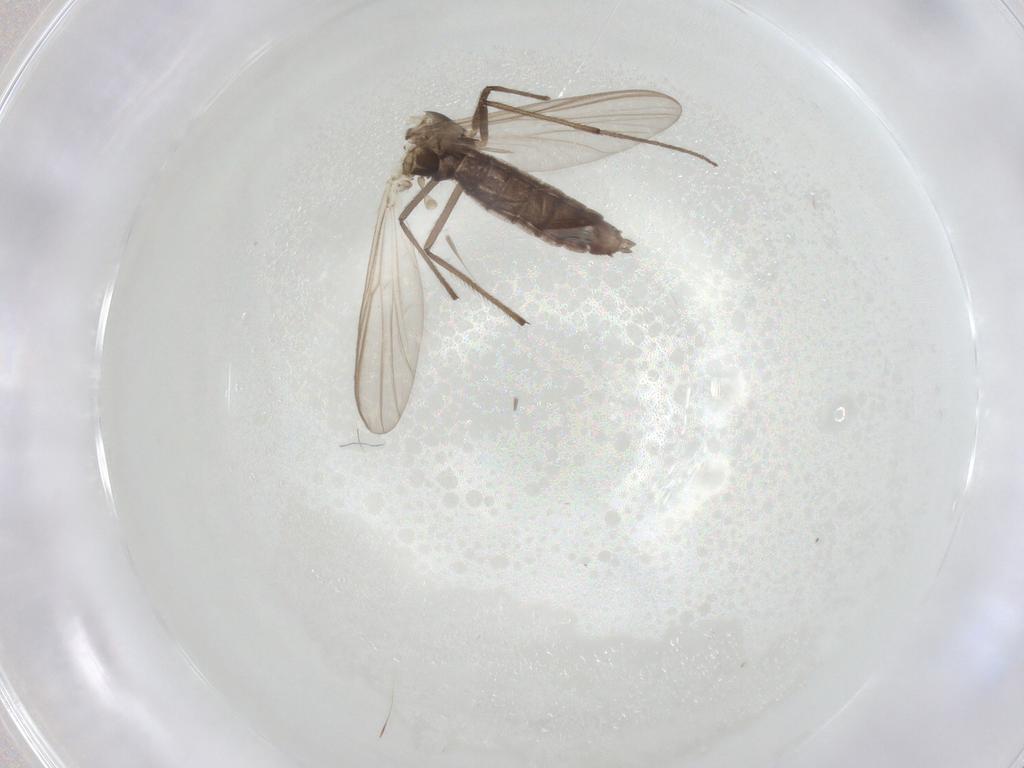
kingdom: Animalia
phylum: Arthropoda
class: Insecta
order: Diptera
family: Chironomidae
